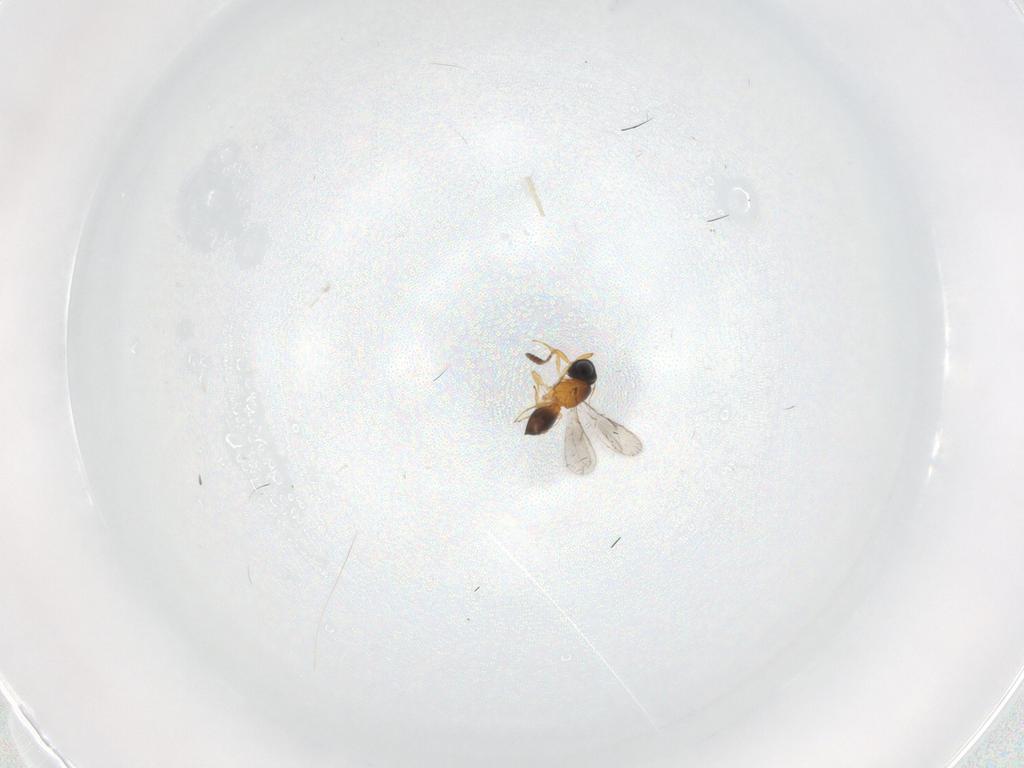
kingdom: Animalia
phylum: Arthropoda
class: Insecta
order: Hymenoptera
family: Scelionidae
